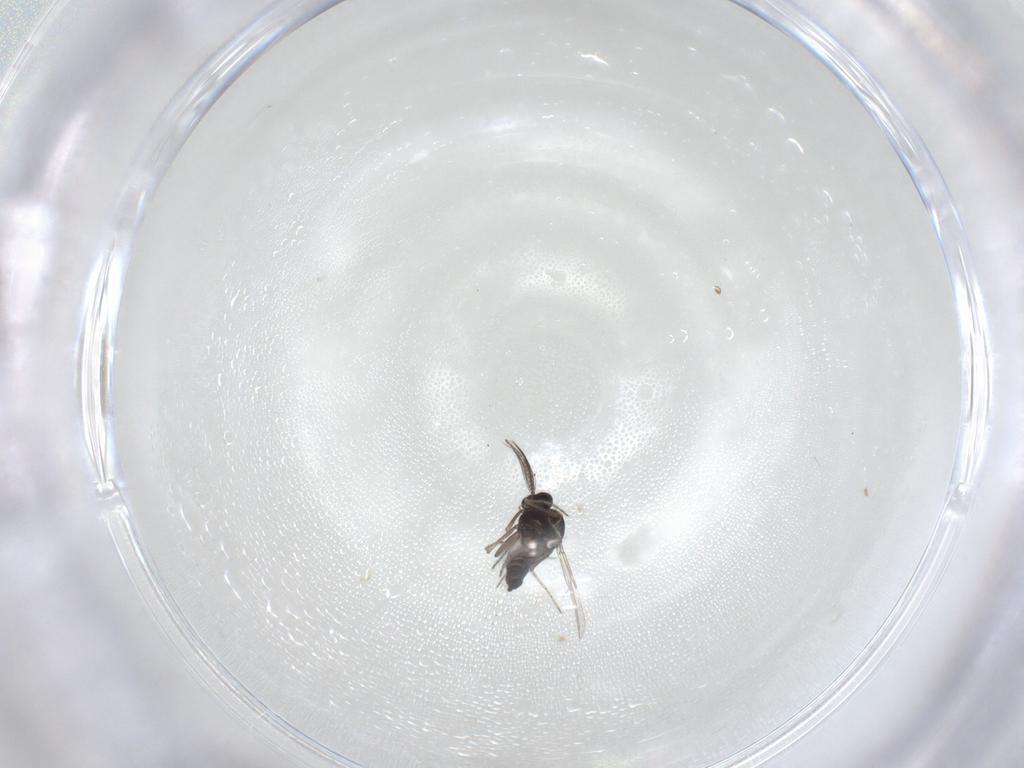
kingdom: Animalia
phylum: Arthropoda
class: Insecta
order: Diptera
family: Ceratopogonidae
